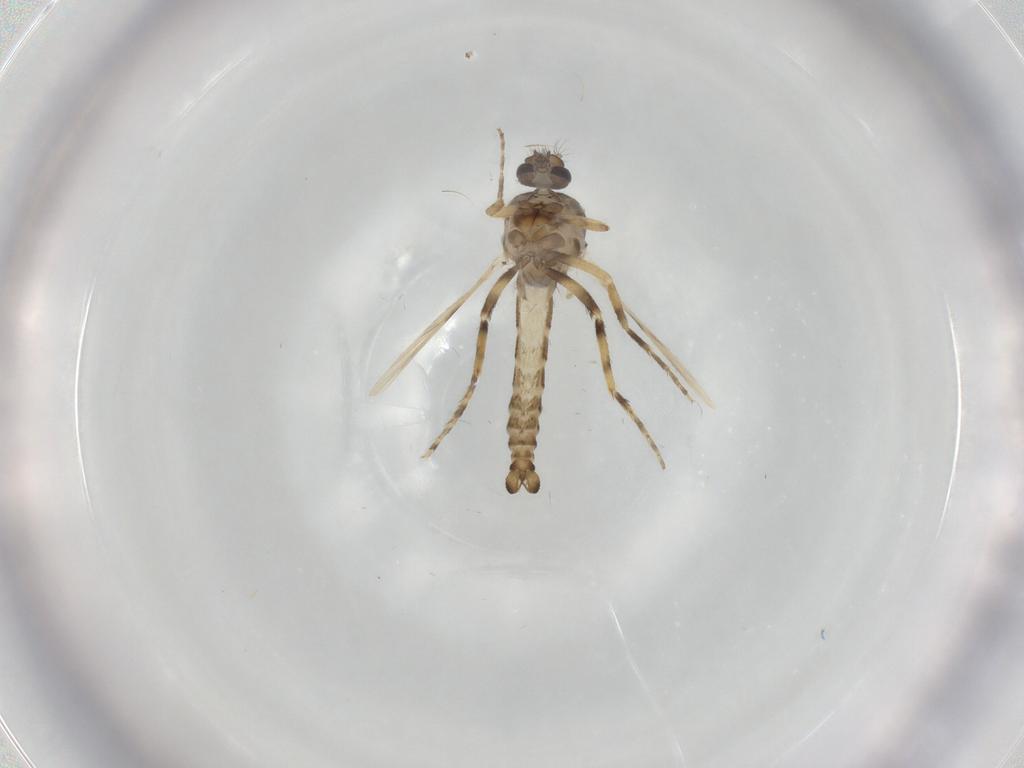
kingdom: Animalia
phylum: Arthropoda
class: Insecta
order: Diptera
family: Ceratopogonidae
